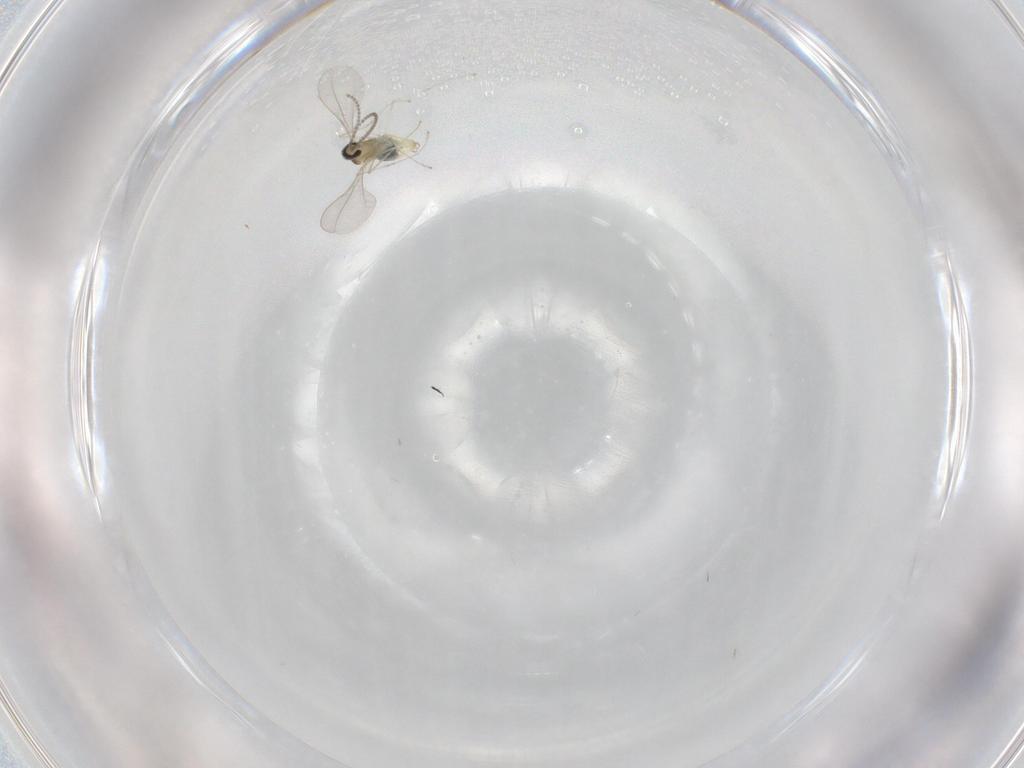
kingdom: Animalia
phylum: Arthropoda
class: Insecta
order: Diptera
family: Cecidomyiidae
